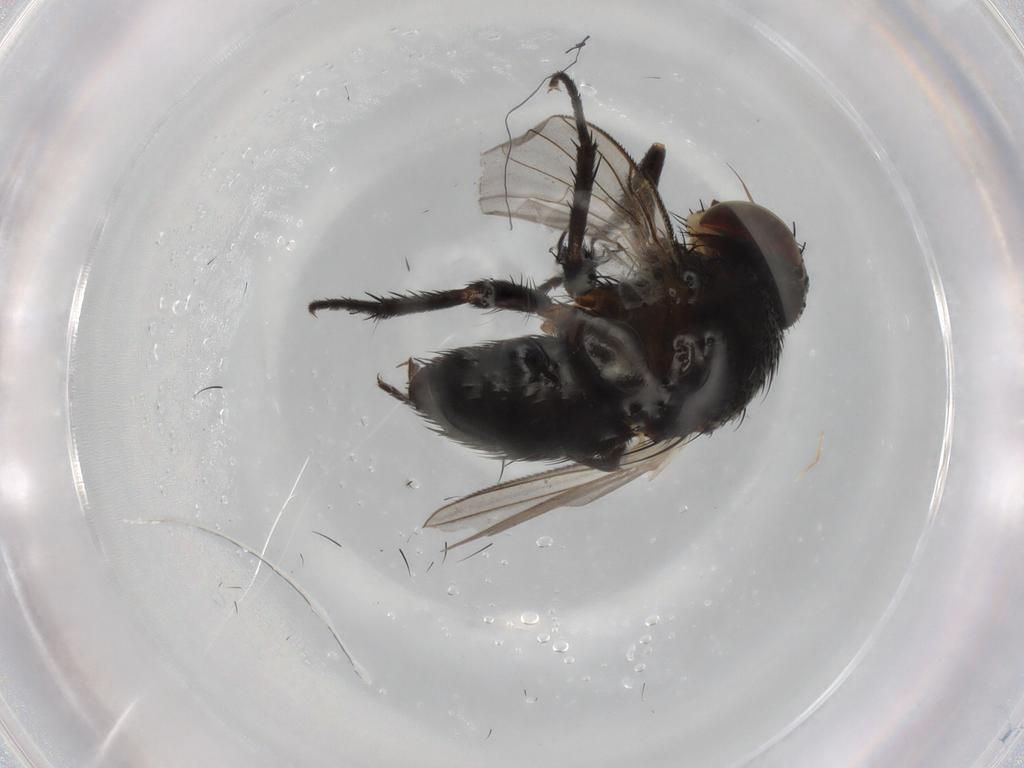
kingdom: Animalia
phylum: Arthropoda
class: Insecta
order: Diptera
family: Tachinidae
